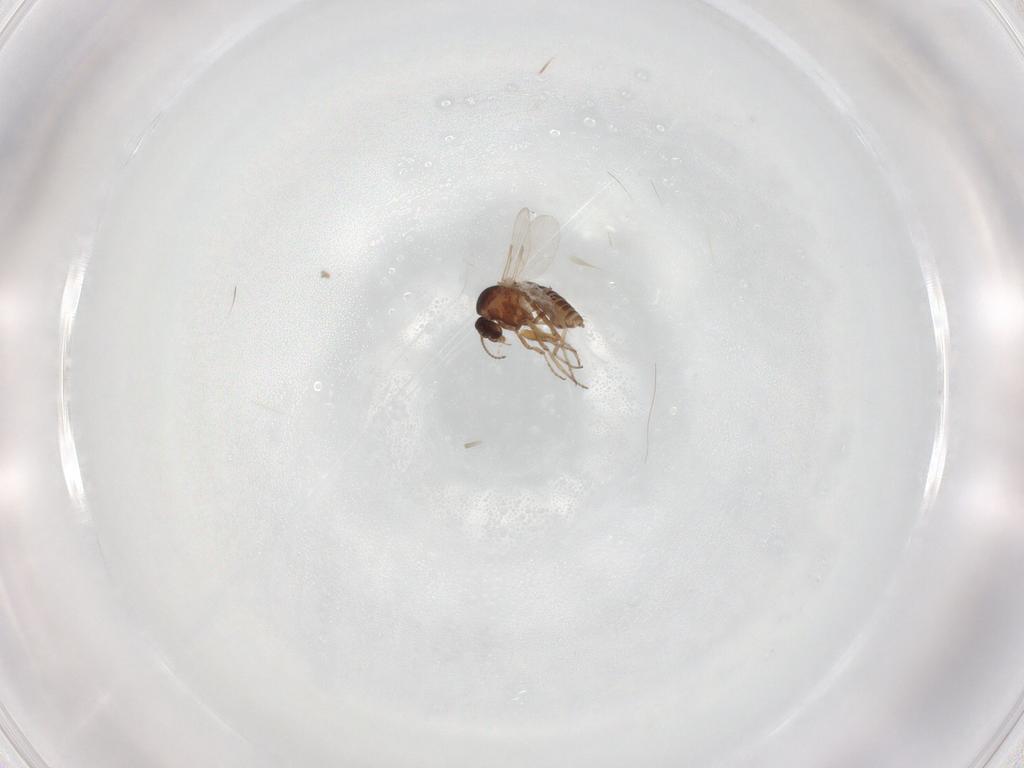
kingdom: Animalia
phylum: Arthropoda
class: Insecta
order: Diptera
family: Ceratopogonidae
